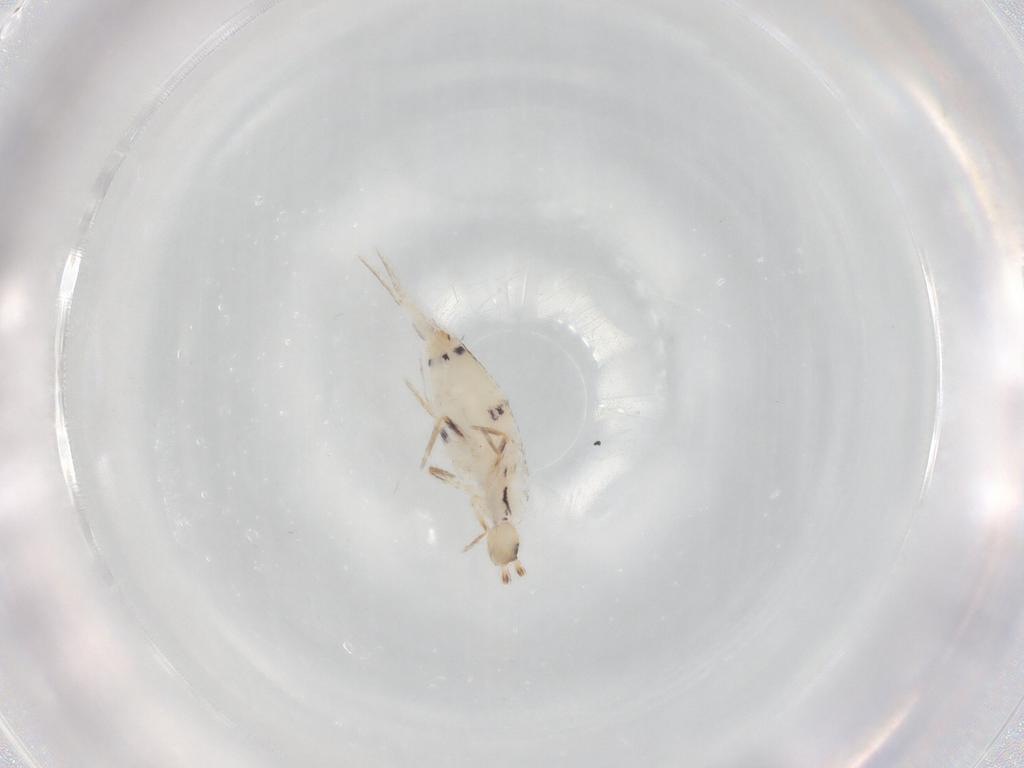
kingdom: Animalia
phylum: Arthropoda
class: Collembola
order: Entomobryomorpha
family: Entomobryidae
